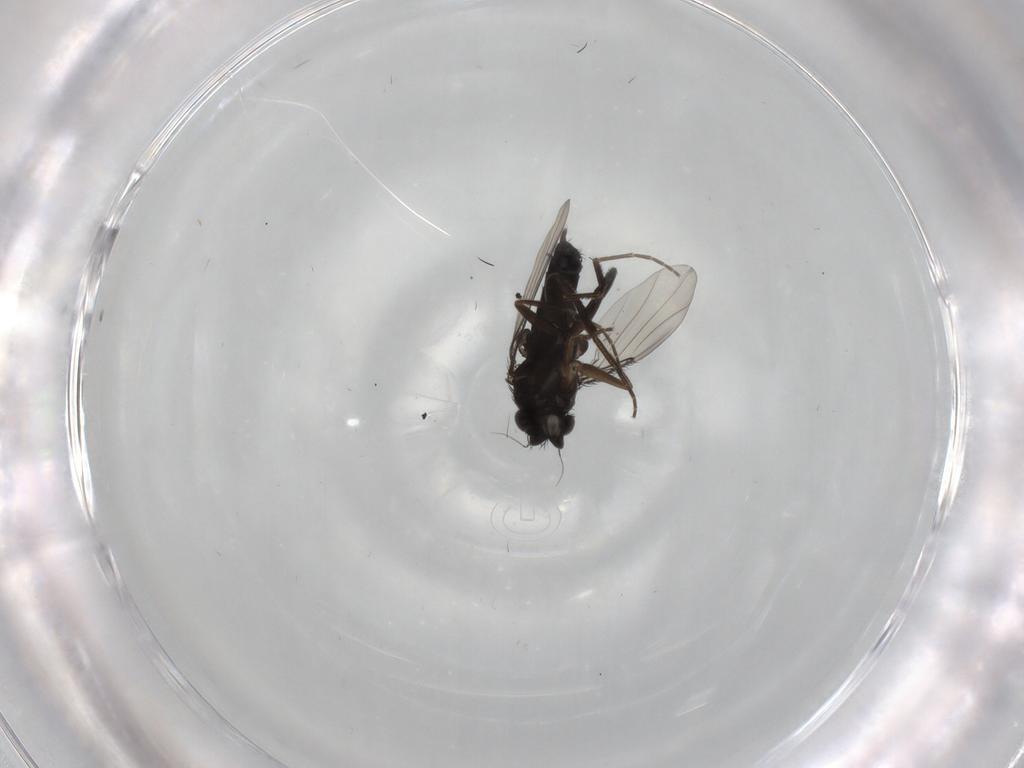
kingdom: Animalia
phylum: Arthropoda
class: Insecta
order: Diptera
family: Phoridae
